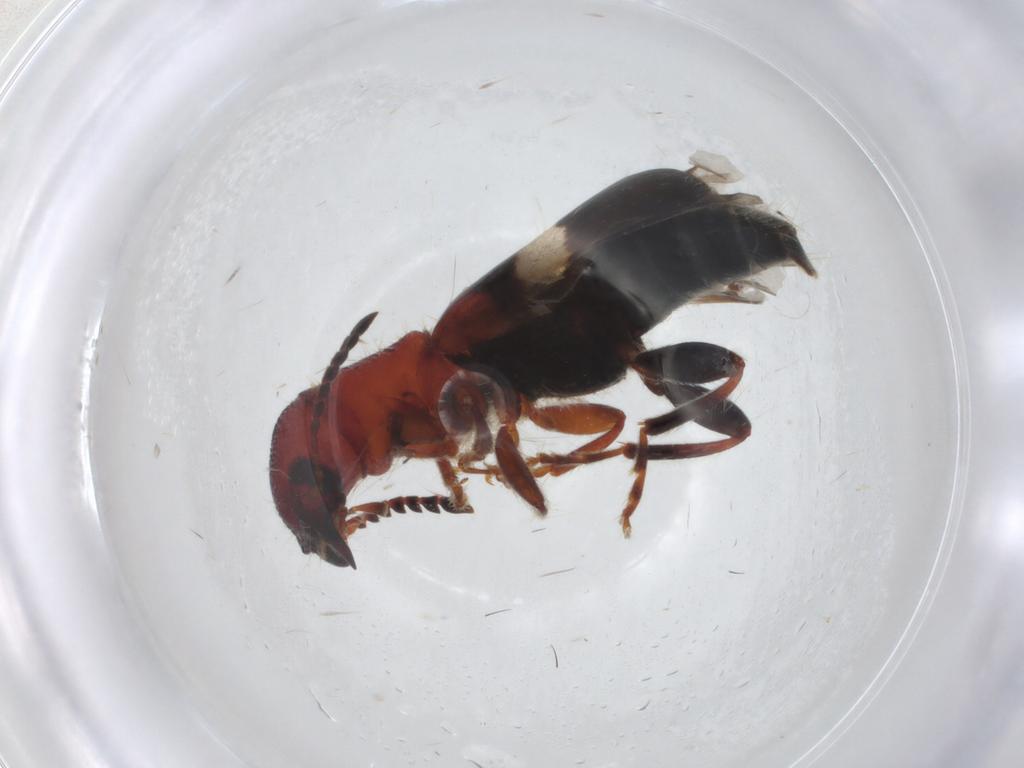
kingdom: Animalia
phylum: Arthropoda
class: Insecta
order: Coleoptera
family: Cleridae
